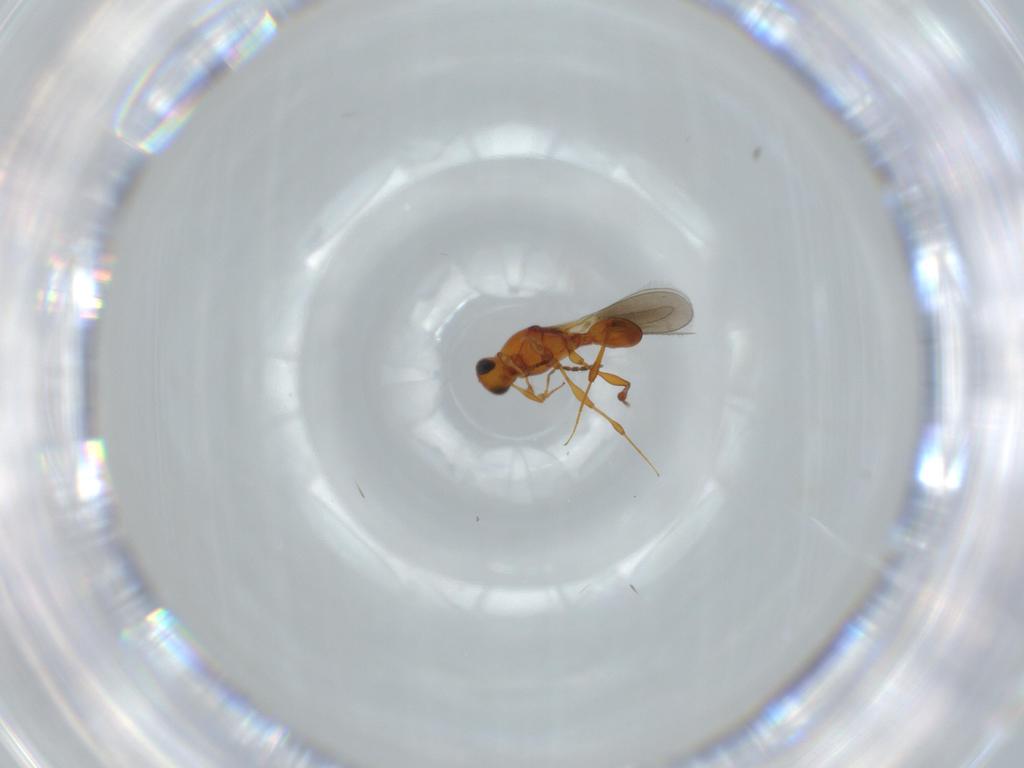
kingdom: Animalia
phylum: Arthropoda
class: Insecta
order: Hymenoptera
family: Platygastridae
